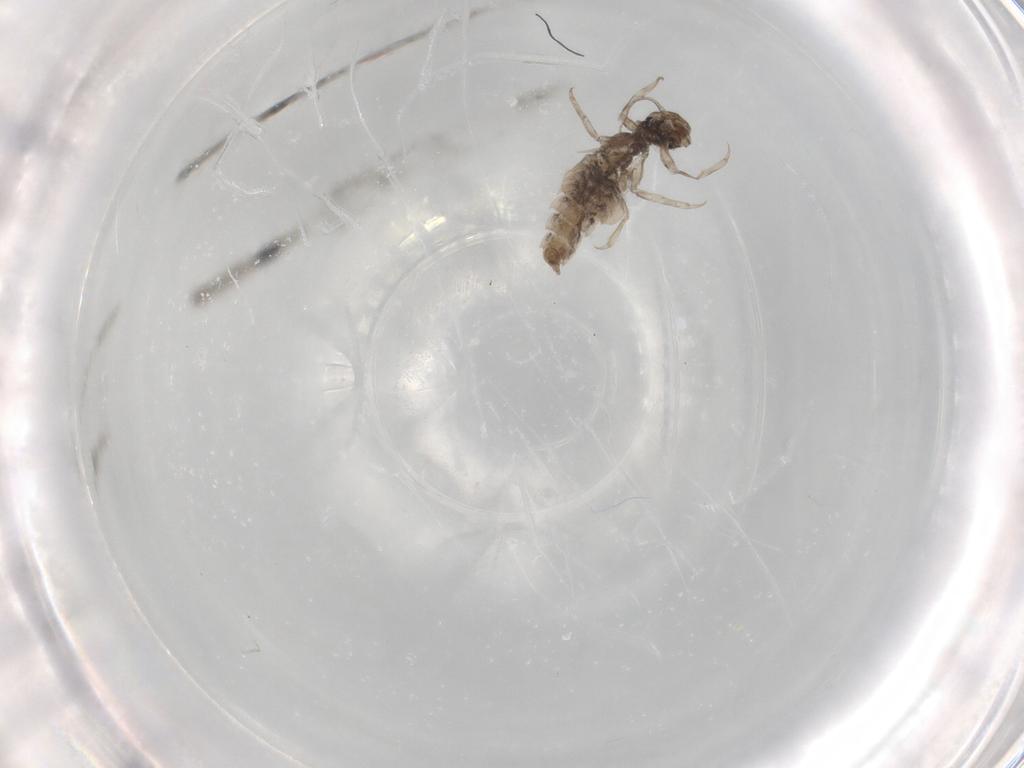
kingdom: Animalia
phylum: Arthropoda
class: Insecta
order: Ephemeroptera
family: Caenidae
